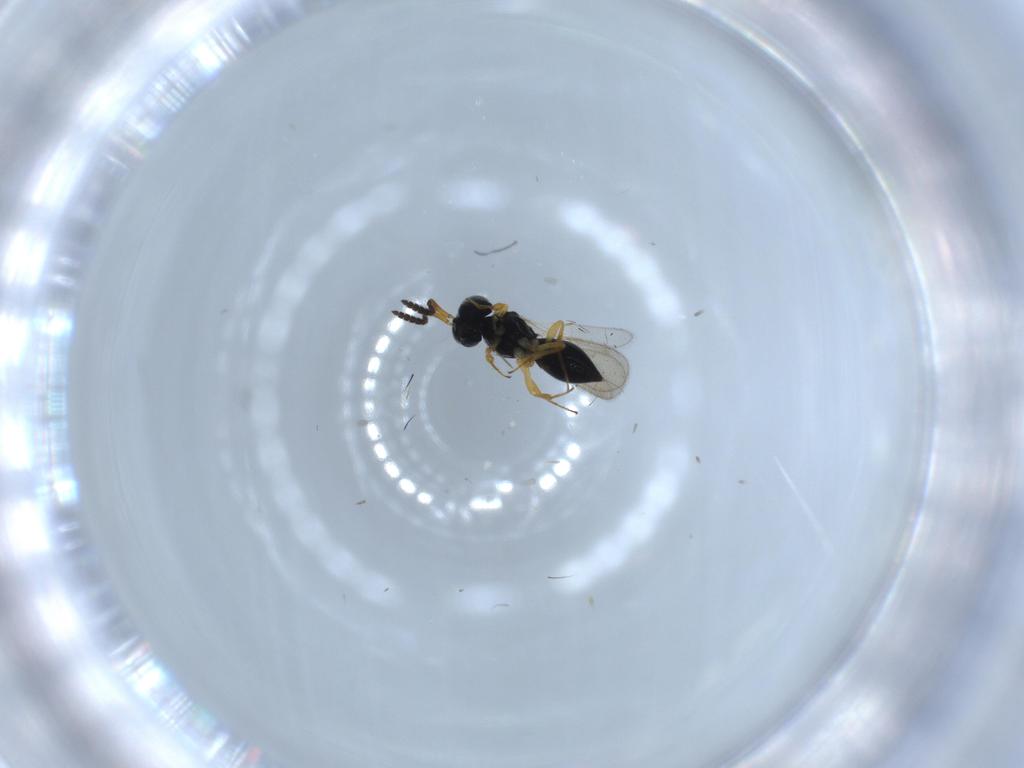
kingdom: Animalia
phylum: Arthropoda
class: Insecta
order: Hymenoptera
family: Scelionidae
